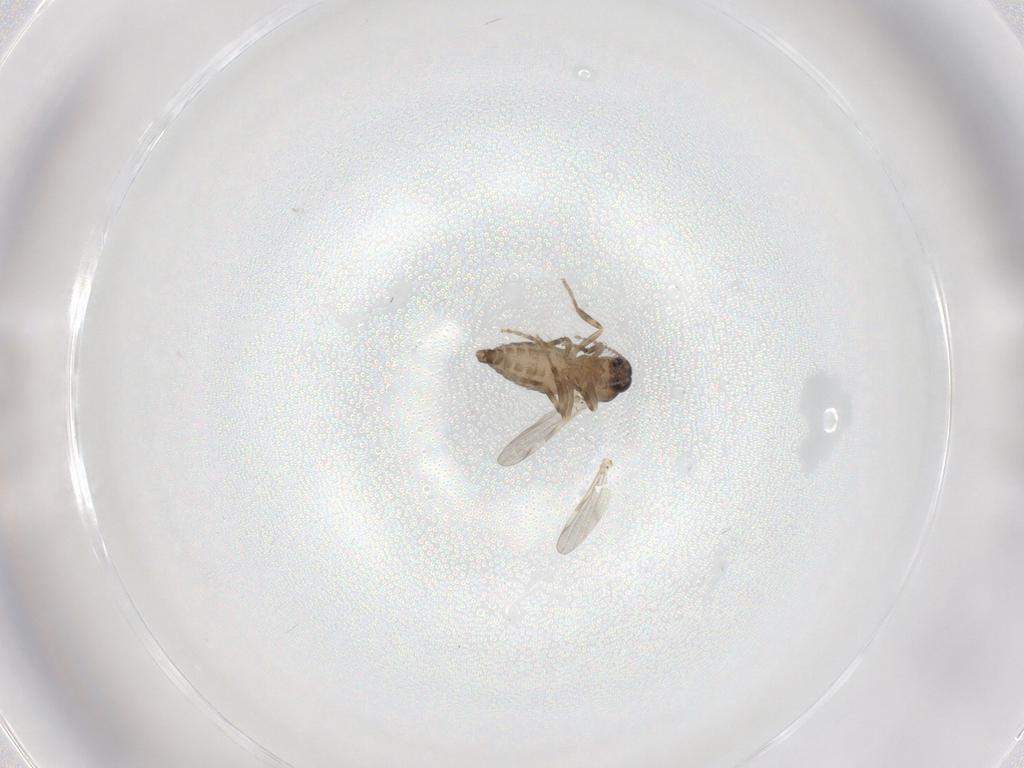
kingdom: Animalia
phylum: Arthropoda
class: Insecta
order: Diptera
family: Ceratopogonidae
